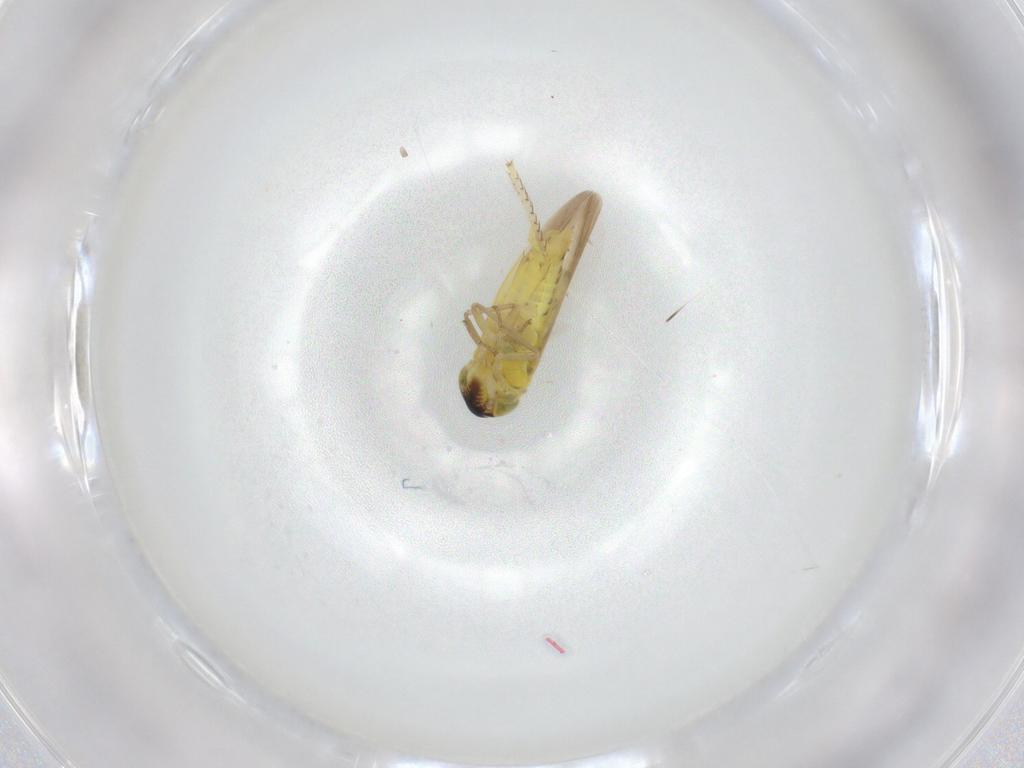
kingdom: Animalia
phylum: Arthropoda
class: Insecta
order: Hemiptera
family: Cicadellidae
